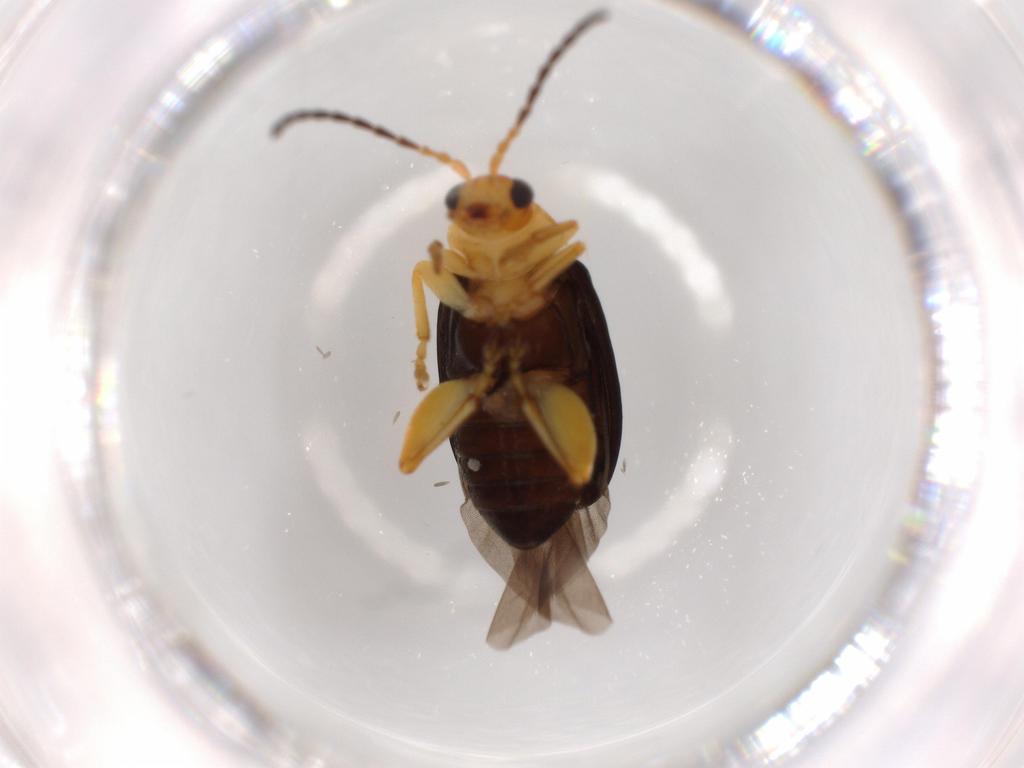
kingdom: Animalia
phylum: Arthropoda
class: Insecta
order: Coleoptera
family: Chrysomelidae
